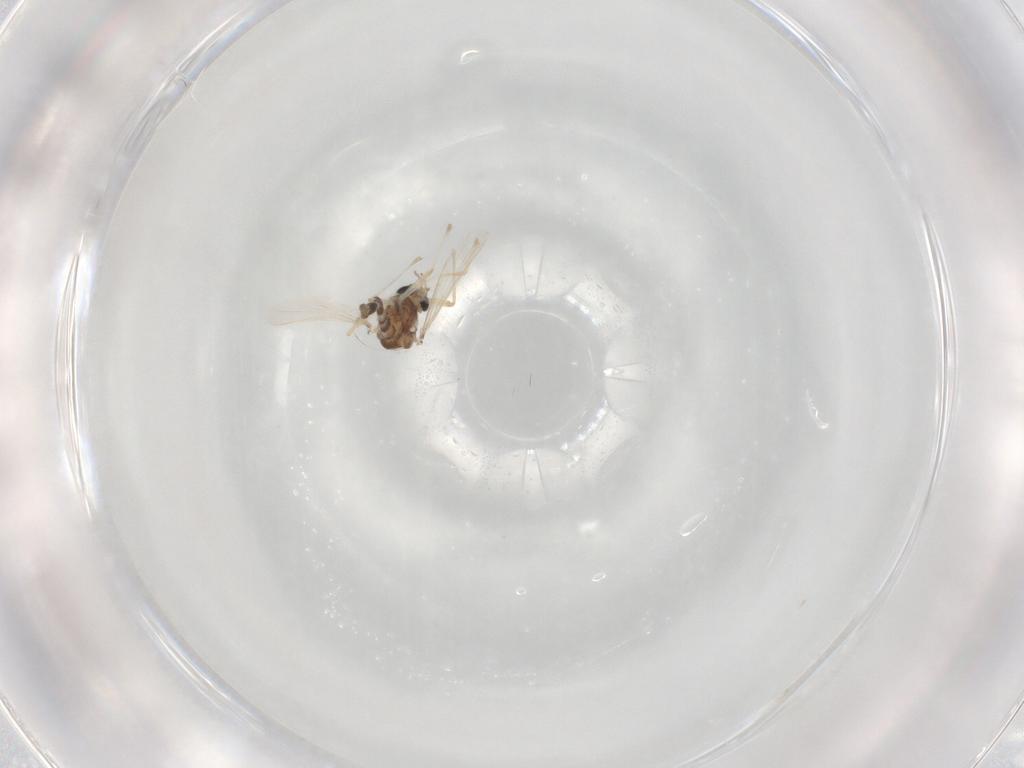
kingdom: Animalia
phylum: Arthropoda
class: Insecta
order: Diptera
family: Chironomidae
